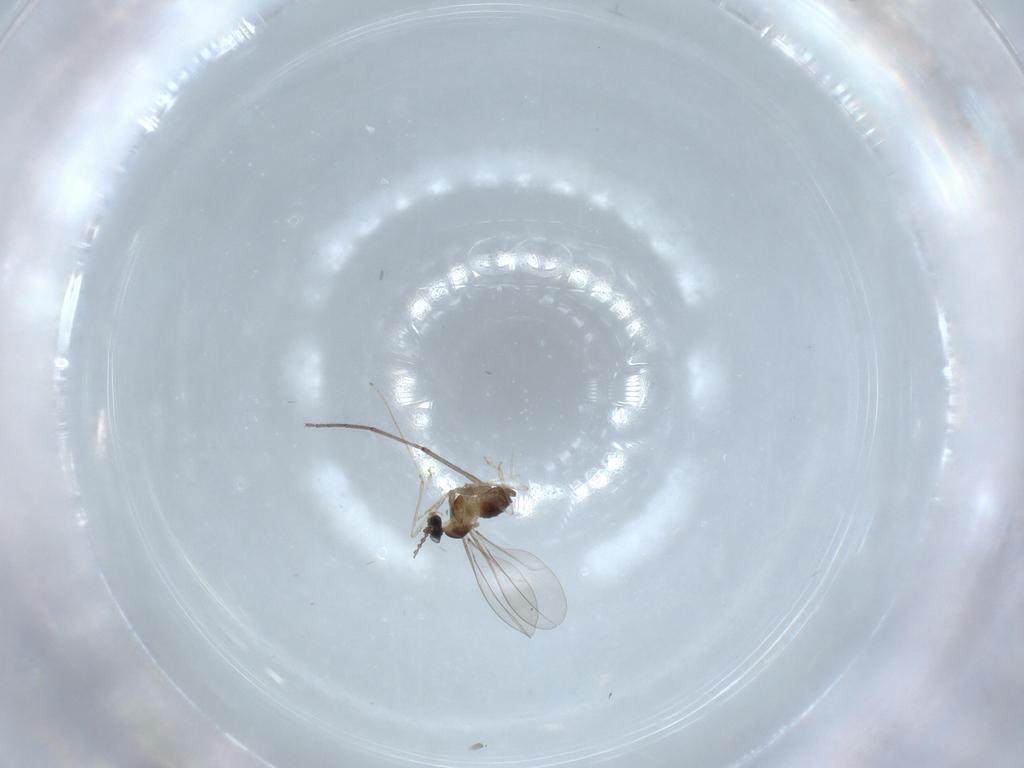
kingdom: Animalia
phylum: Arthropoda
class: Insecta
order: Diptera
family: Cecidomyiidae
